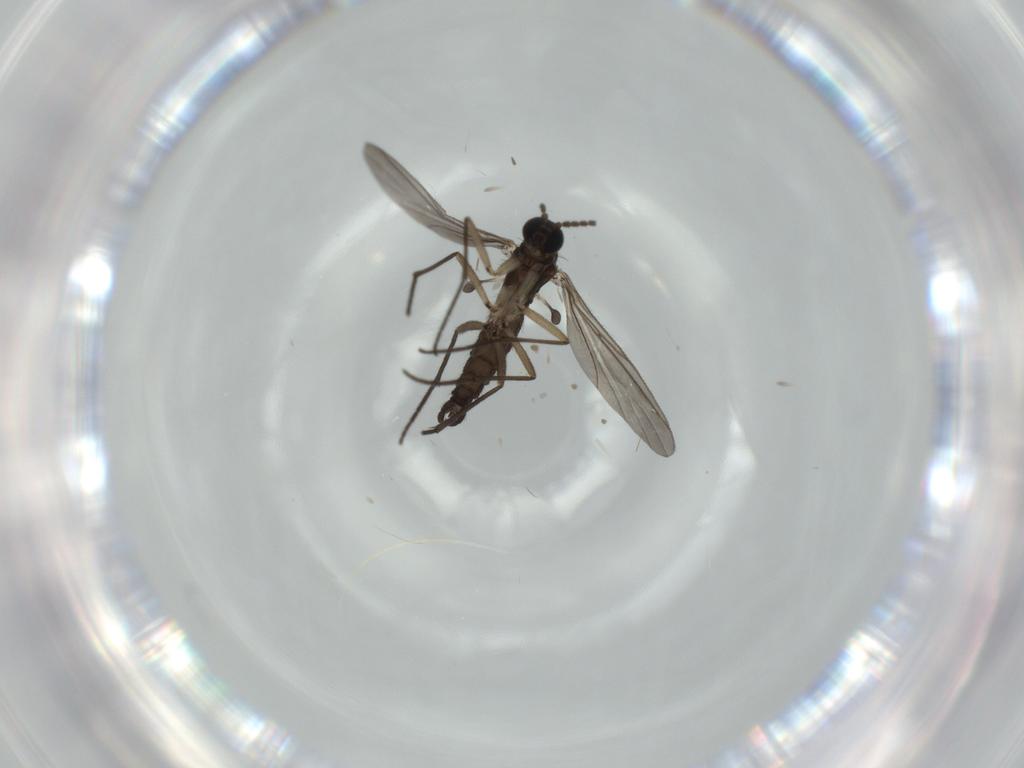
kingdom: Animalia
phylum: Arthropoda
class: Insecta
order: Diptera
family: Sciaridae
